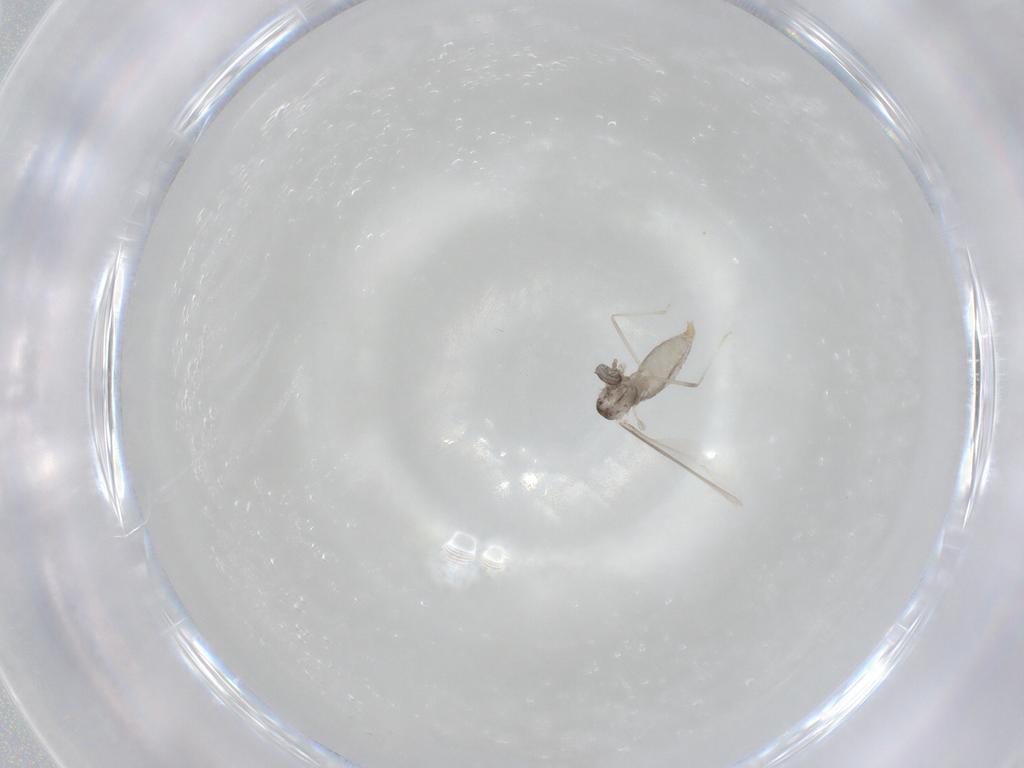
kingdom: Animalia
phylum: Arthropoda
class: Insecta
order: Diptera
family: Cecidomyiidae
